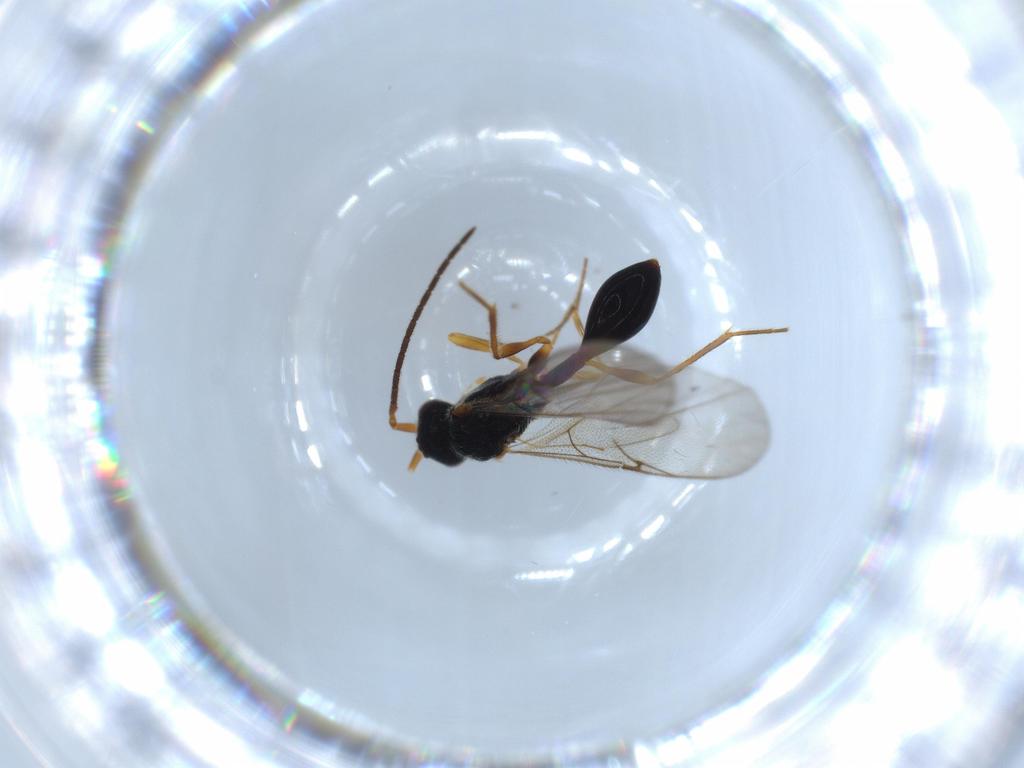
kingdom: Animalia
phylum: Arthropoda
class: Insecta
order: Hymenoptera
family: Braconidae
